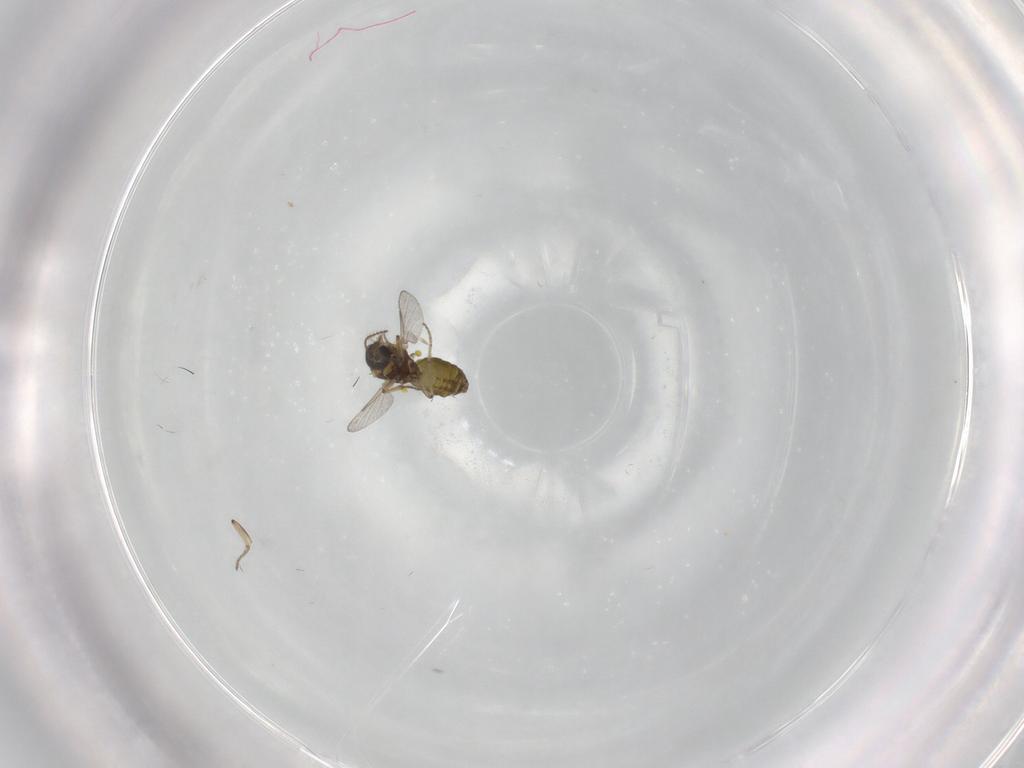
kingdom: Animalia
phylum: Arthropoda
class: Insecta
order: Diptera
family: Ceratopogonidae
